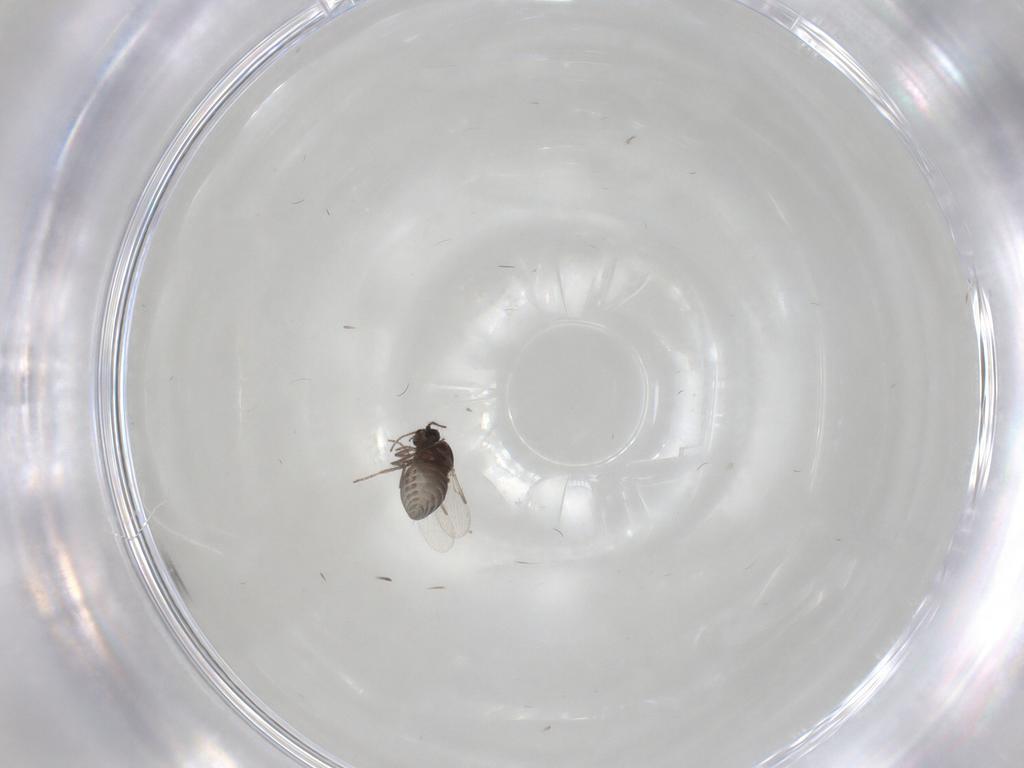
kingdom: Animalia
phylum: Arthropoda
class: Insecta
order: Diptera
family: Ceratopogonidae
